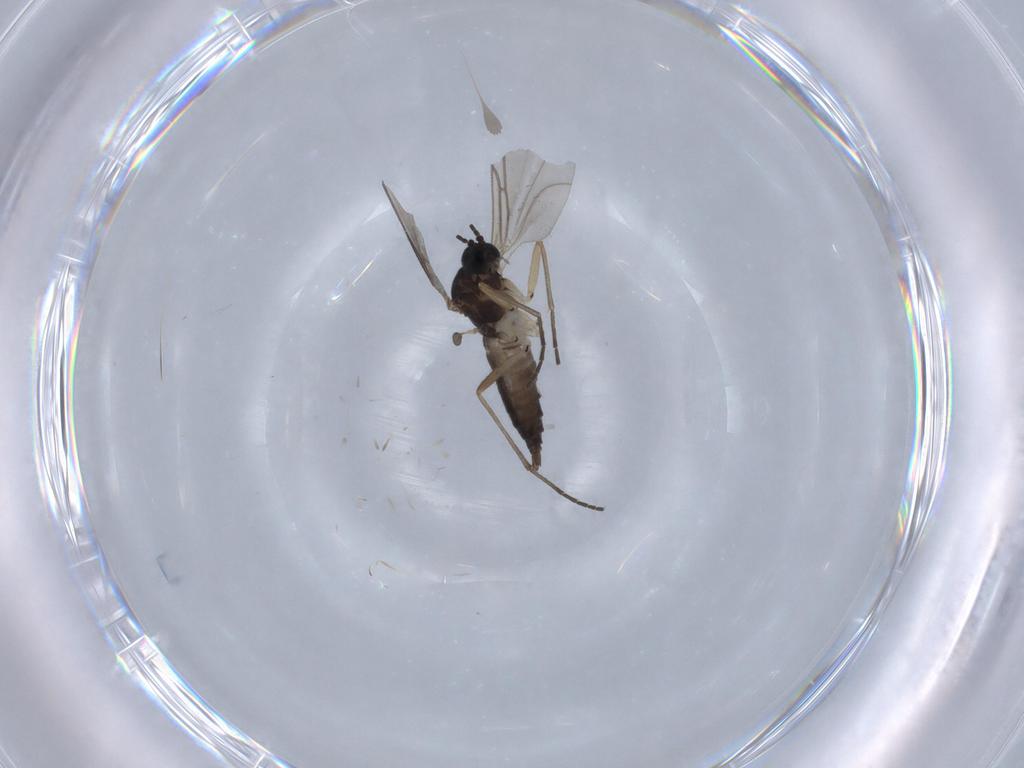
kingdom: Animalia
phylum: Arthropoda
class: Insecta
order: Diptera
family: Sciaridae
